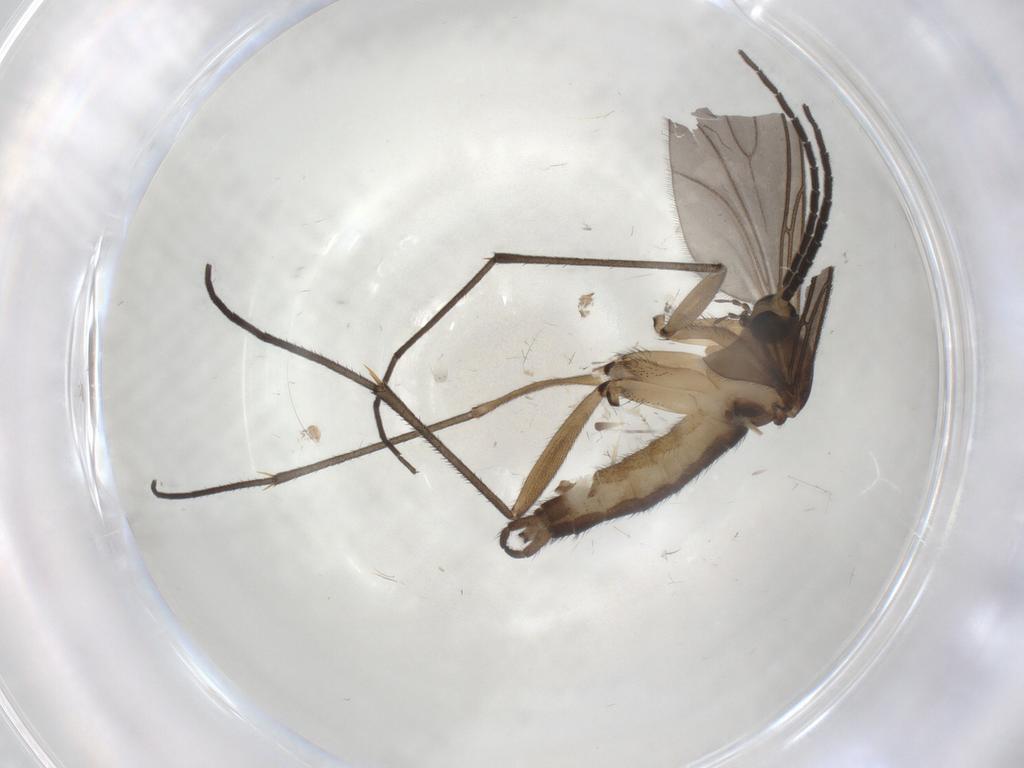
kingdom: Animalia
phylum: Arthropoda
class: Insecta
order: Diptera
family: Sciaridae
